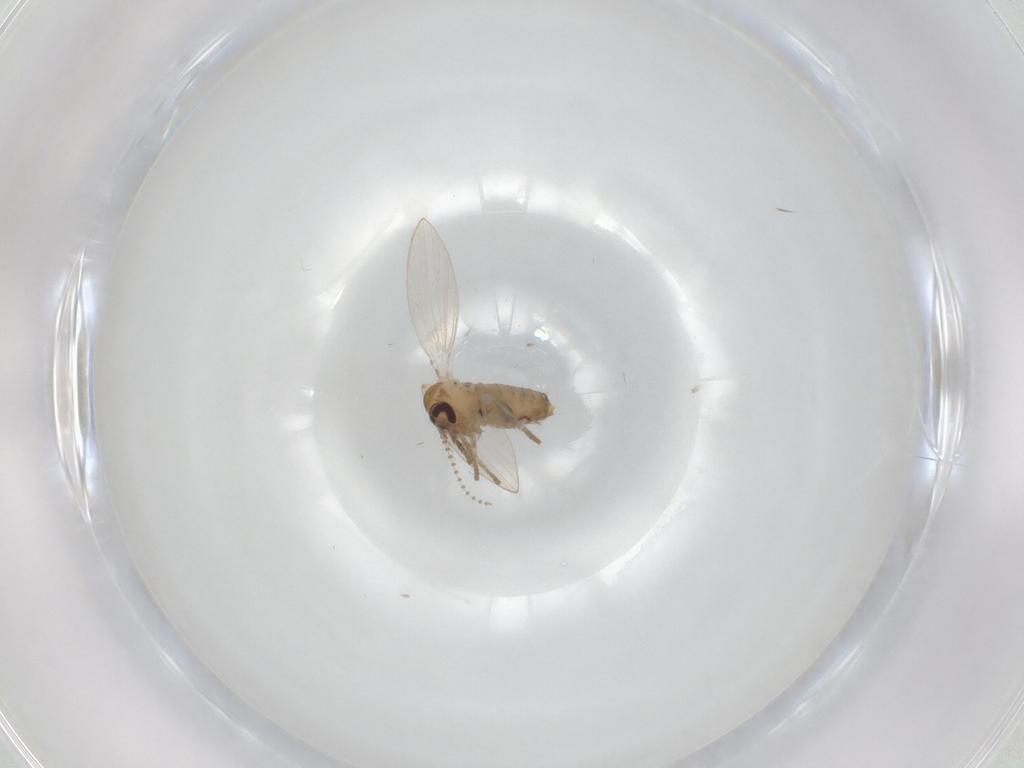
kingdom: Animalia
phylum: Arthropoda
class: Insecta
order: Diptera
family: Psychodidae
